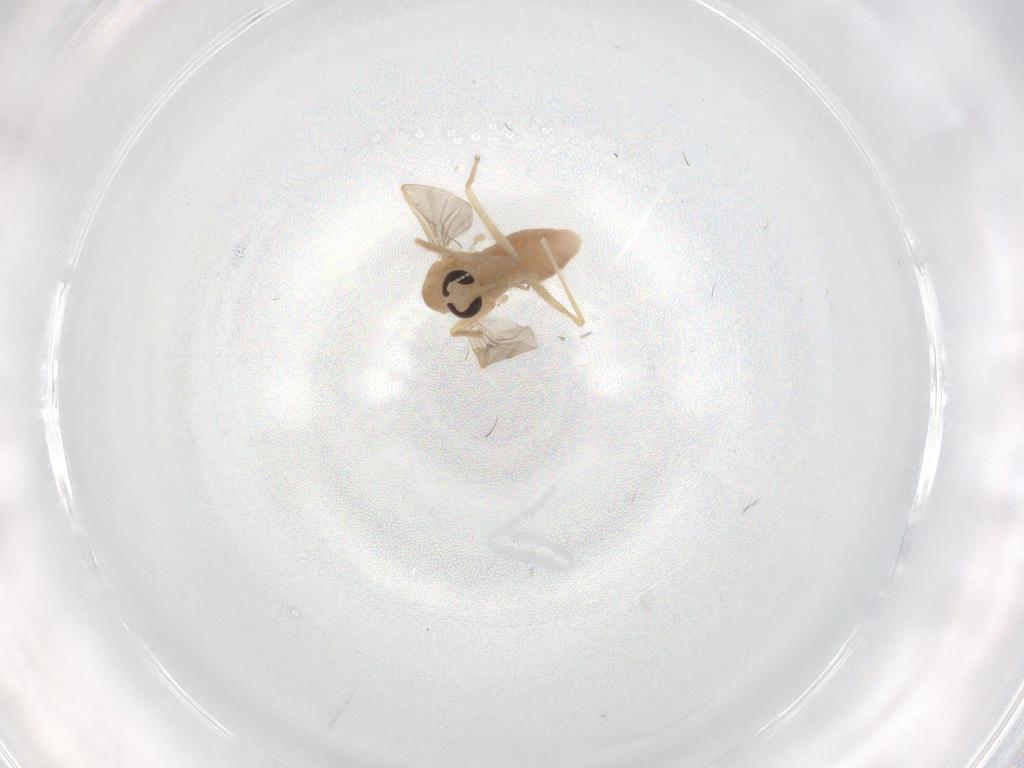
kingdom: Animalia
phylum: Arthropoda
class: Insecta
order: Diptera
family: Chironomidae
